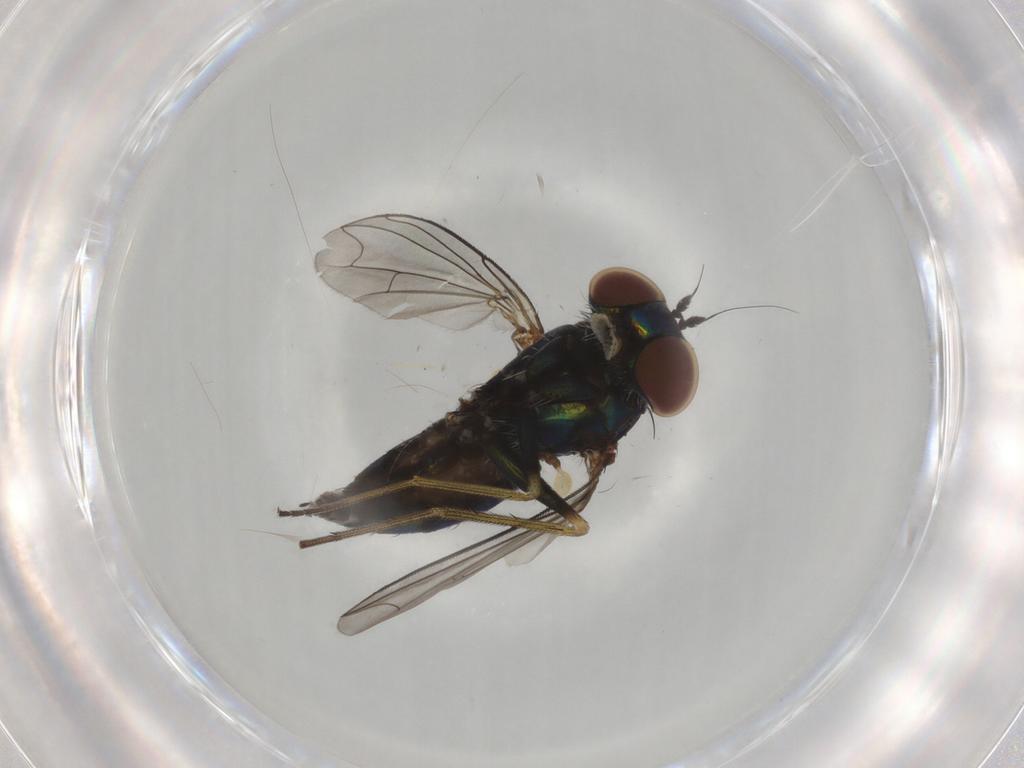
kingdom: Animalia
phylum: Arthropoda
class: Insecta
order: Diptera
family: Dolichopodidae
